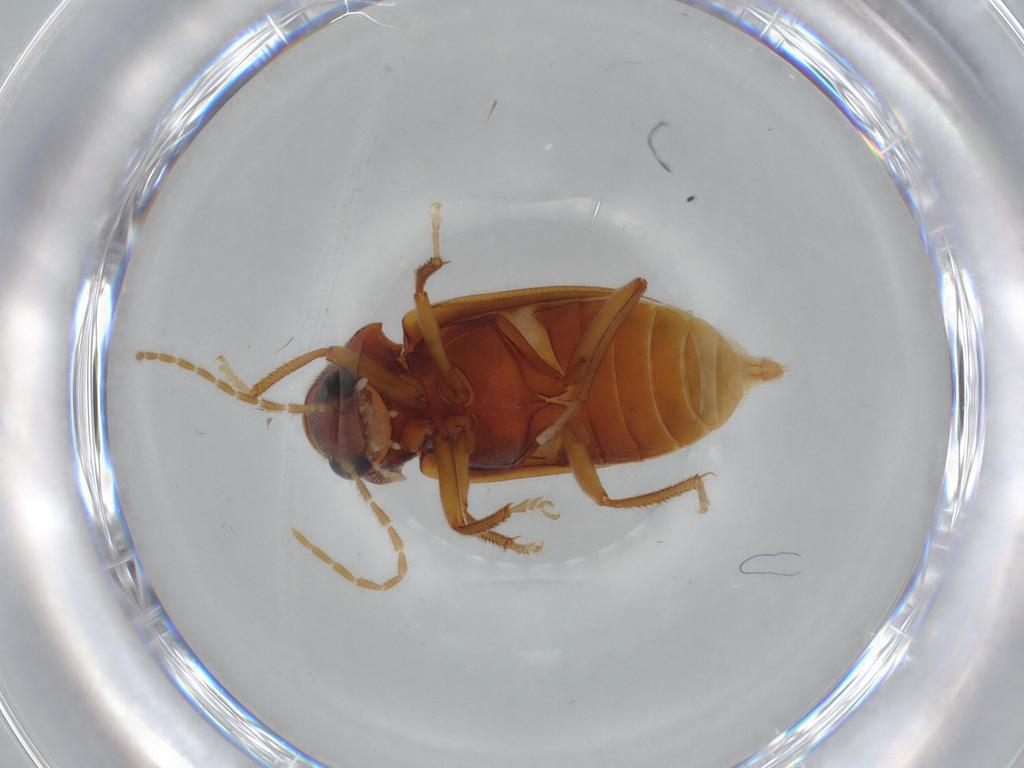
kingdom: Animalia
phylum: Arthropoda
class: Insecta
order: Coleoptera
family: Ptilodactylidae
